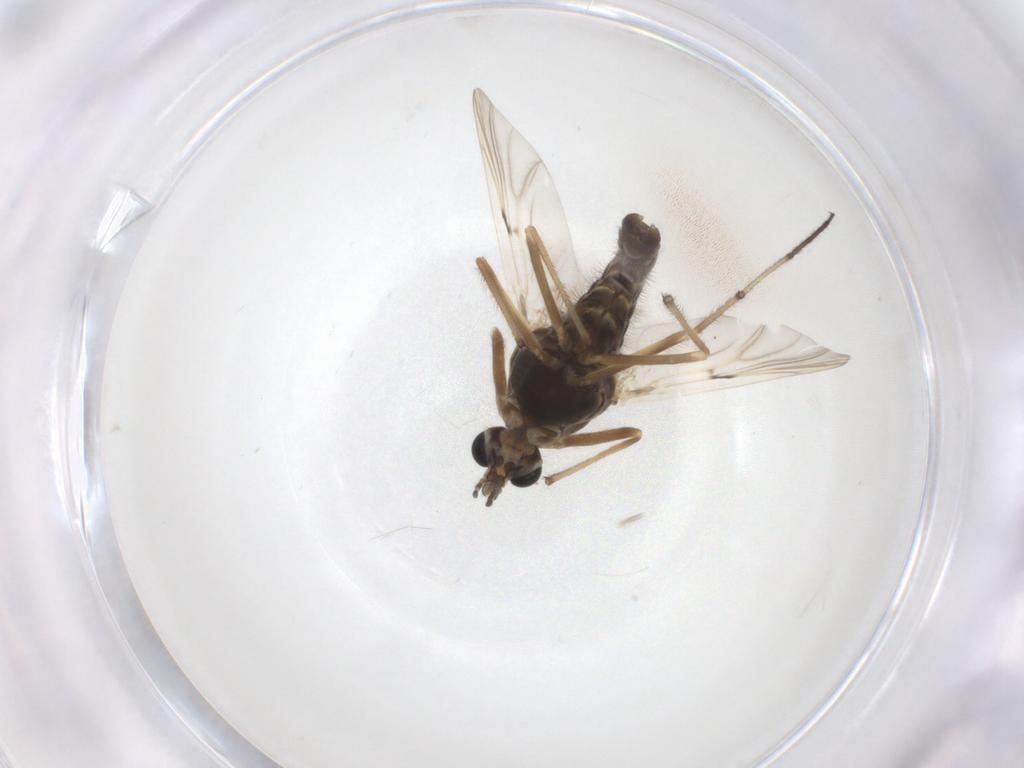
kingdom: Animalia
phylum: Arthropoda
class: Insecta
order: Diptera
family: Chironomidae
